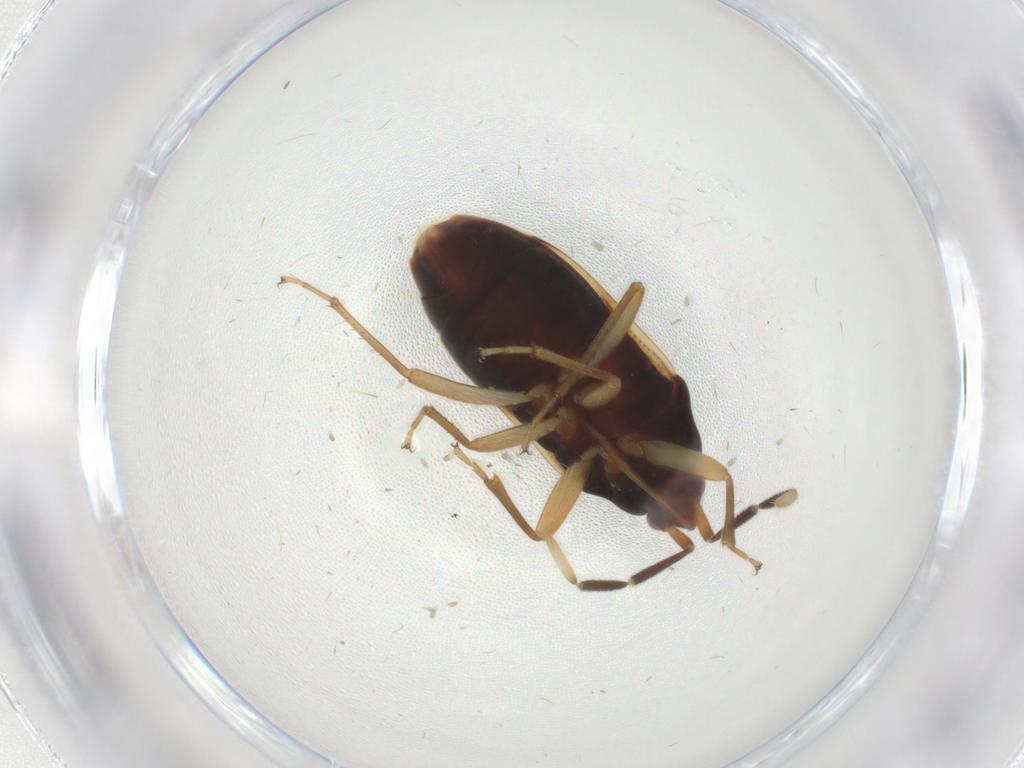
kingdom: Animalia
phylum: Arthropoda
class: Insecta
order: Hemiptera
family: Rhyparochromidae
